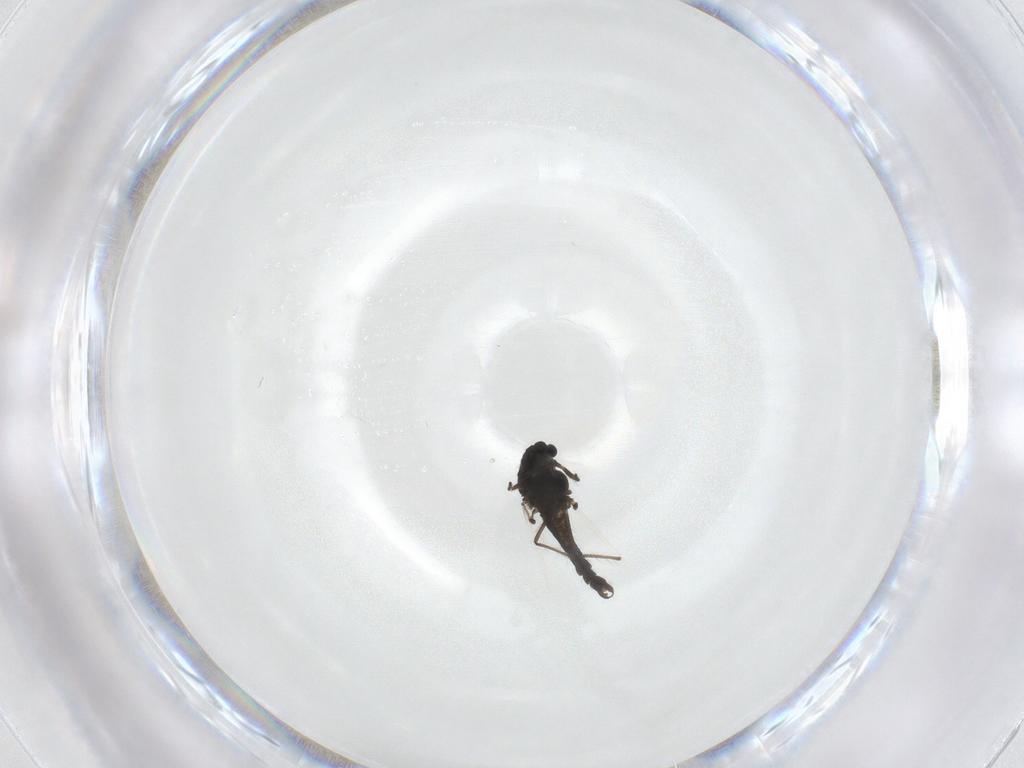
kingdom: Animalia
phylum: Arthropoda
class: Insecta
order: Diptera
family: Chironomidae
